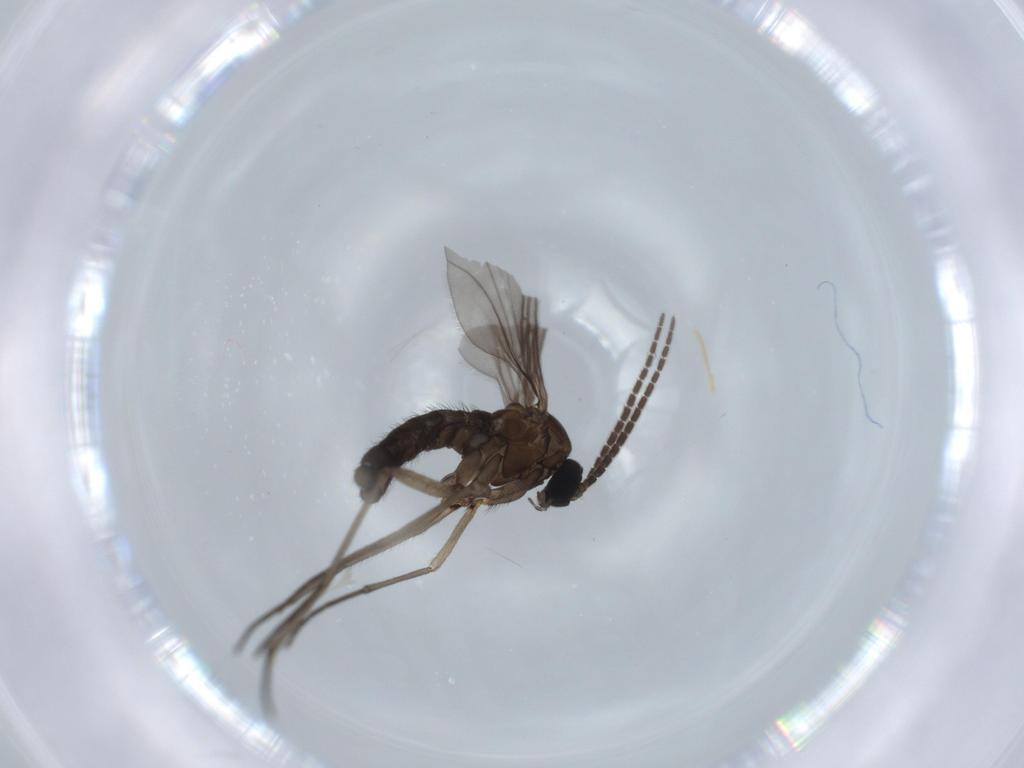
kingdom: Animalia
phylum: Arthropoda
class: Insecta
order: Diptera
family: Sciaridae
